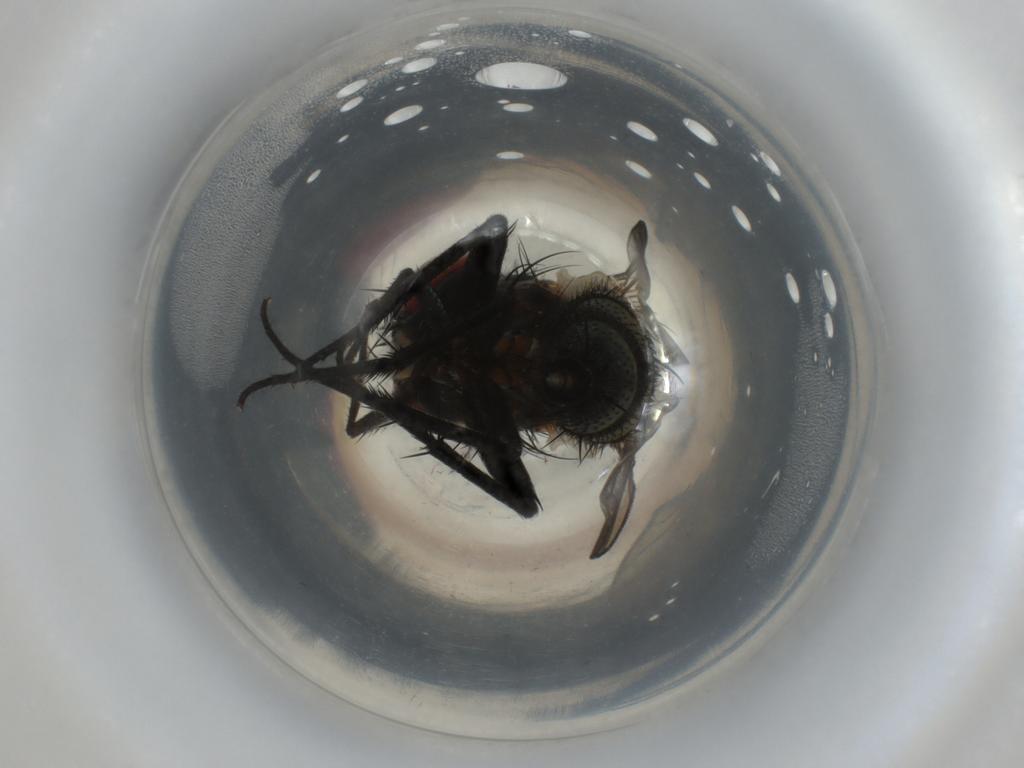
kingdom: Animalia
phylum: Arthropoda
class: Insecta
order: Diptera
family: Sarcophagidae
